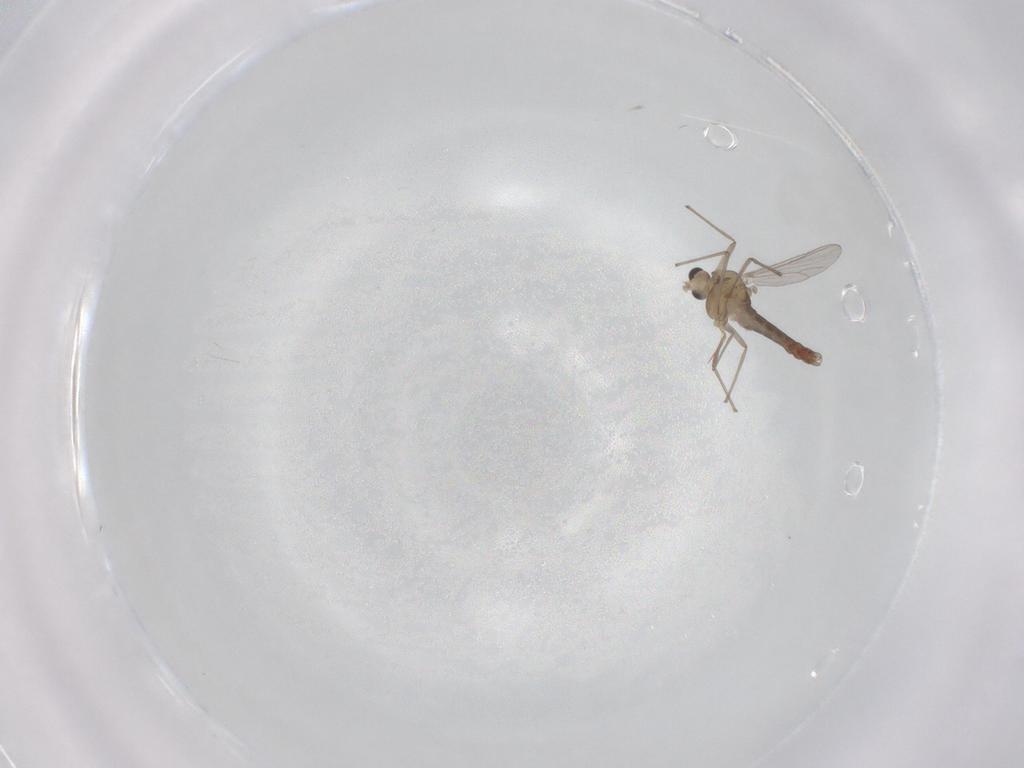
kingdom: Animalia
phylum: Arthropoda
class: Insecta
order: Diptera
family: Chironomidae
